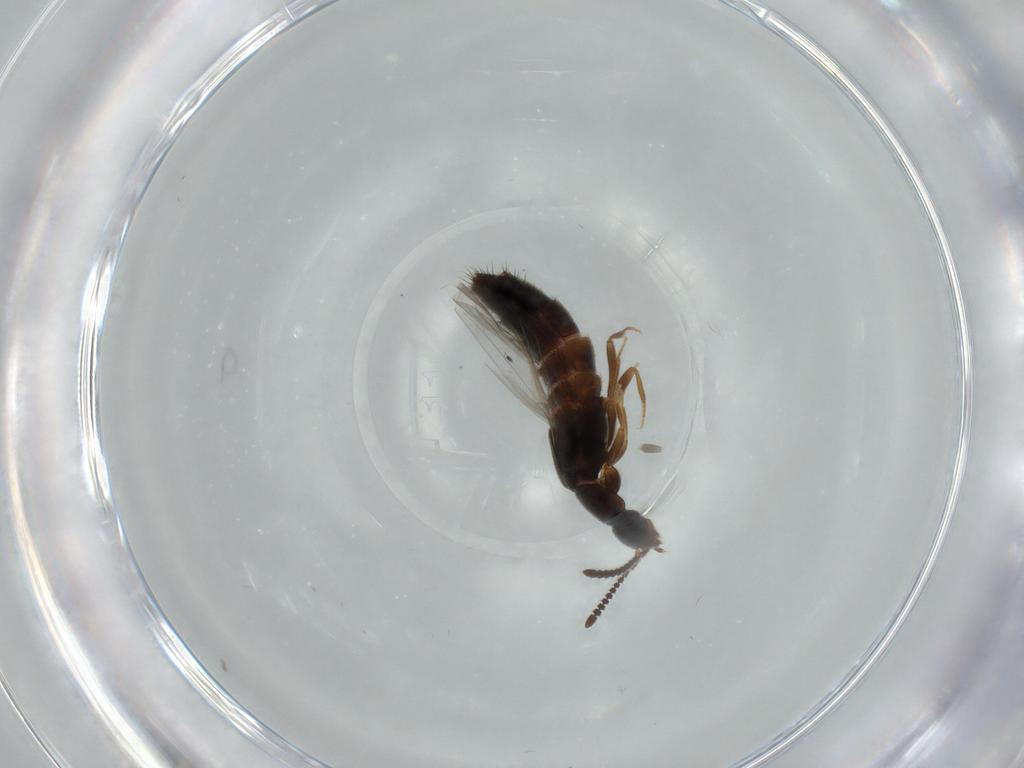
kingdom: Animalia
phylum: Arthropoda
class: Insecta
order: Coleoptera
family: Staphylinidae
